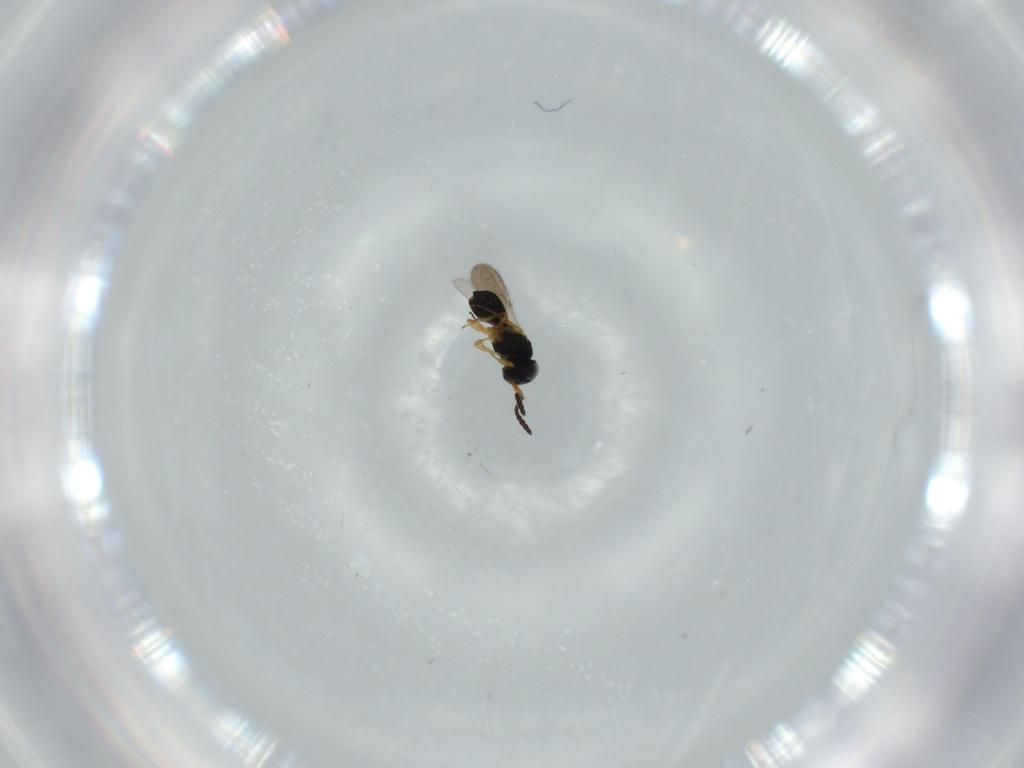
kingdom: Animalia
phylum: Arthropoda
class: Insecta
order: Hymenoptera
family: Scelionidae
